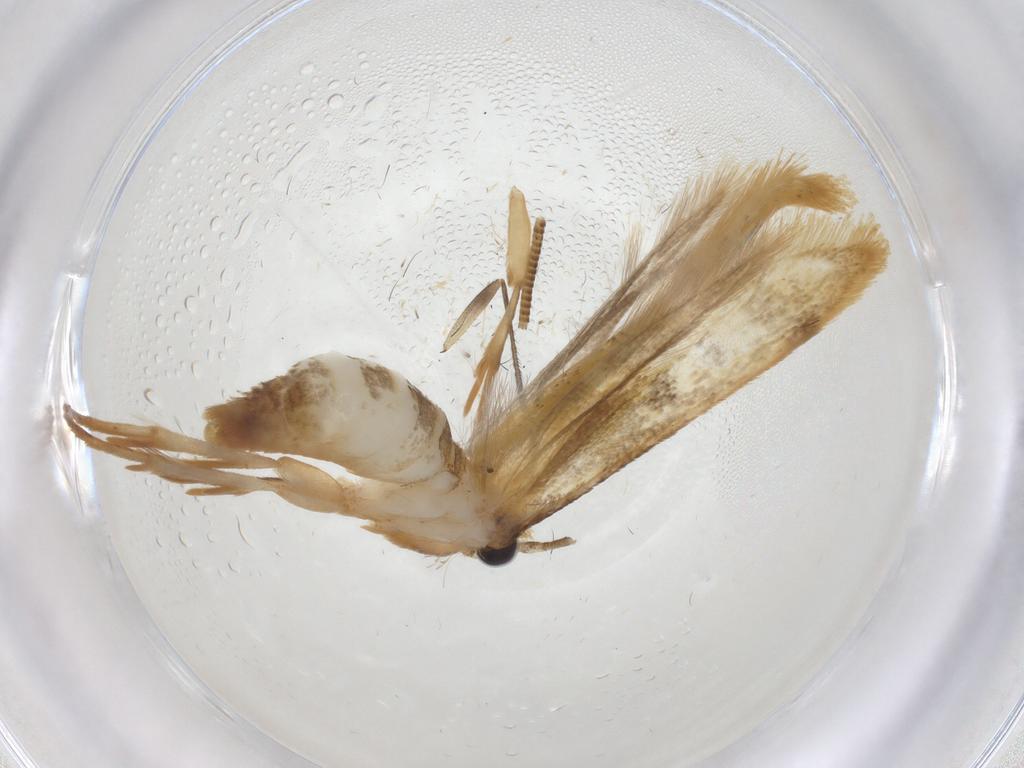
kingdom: Animalia
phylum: Arthropoda
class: Insecta
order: Lepidoptera
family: Tineidae
